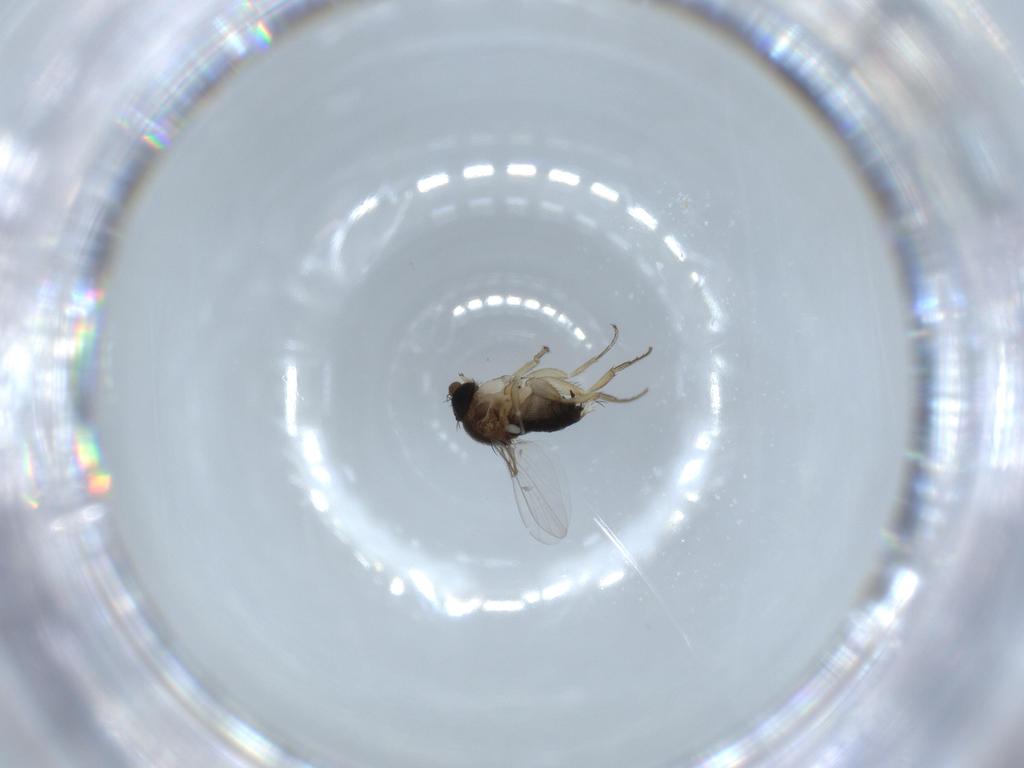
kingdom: Animalia
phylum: Arthropoda
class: Insecta
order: Diptera
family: Phoridae
